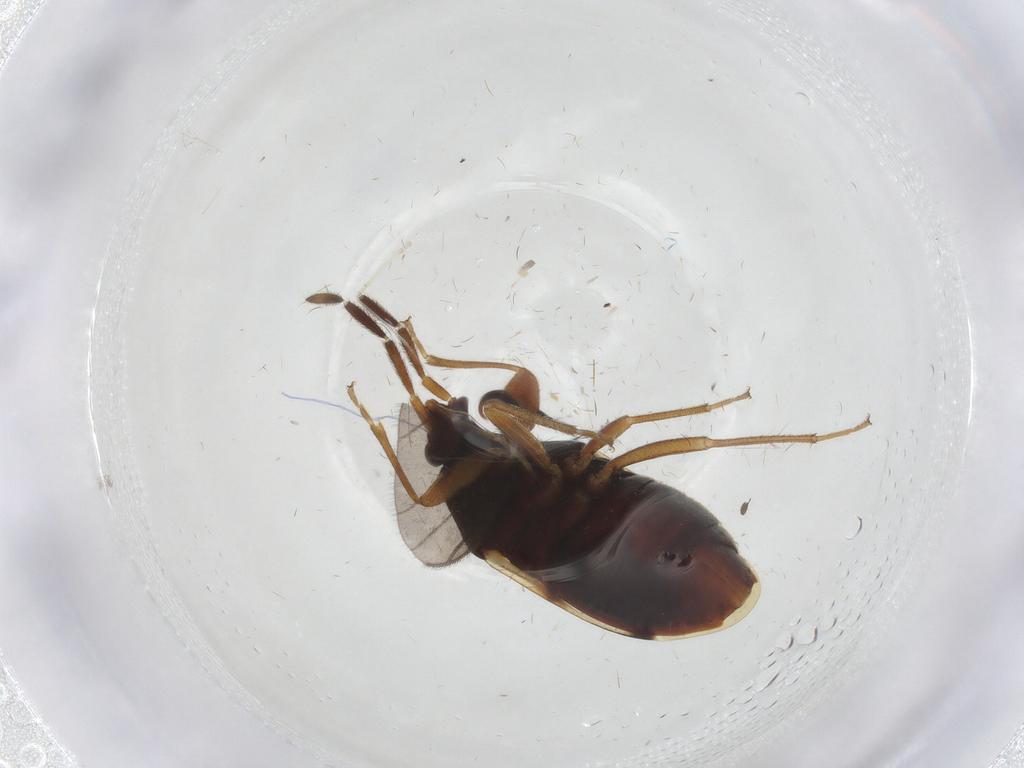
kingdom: Animalia
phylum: Arthropoda
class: Insecta
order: Hemiptera
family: Rhyparochromidae
